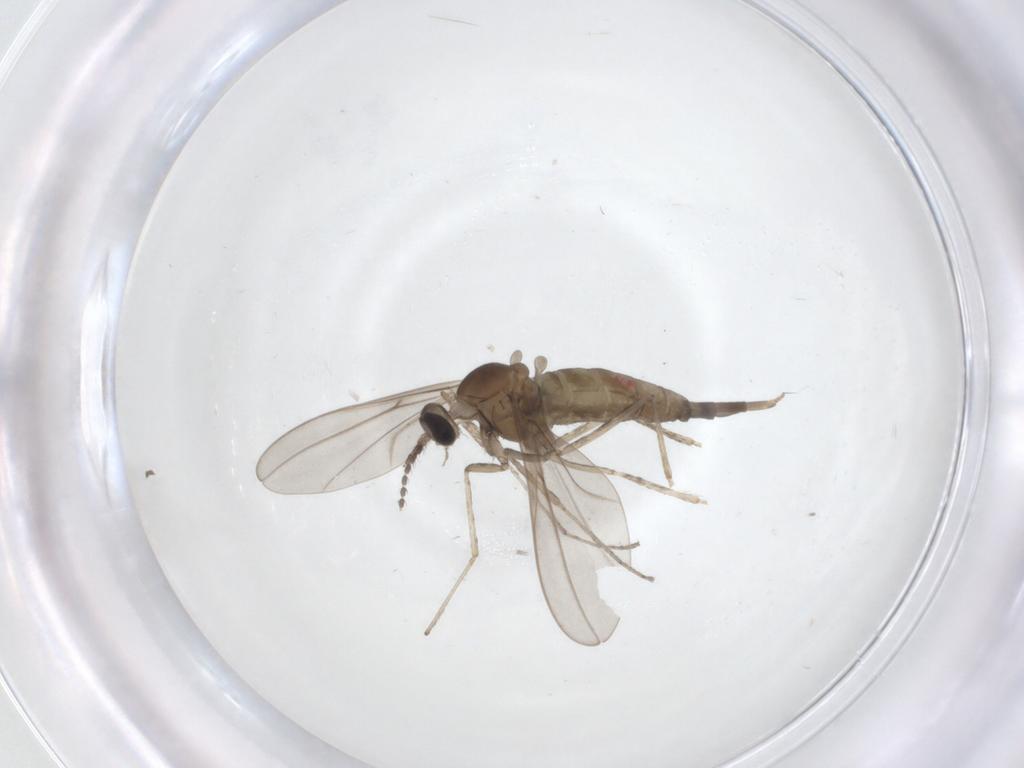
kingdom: Animalia
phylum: Arthropoda
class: Insecta
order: Diptera
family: Cecidomyiidae
